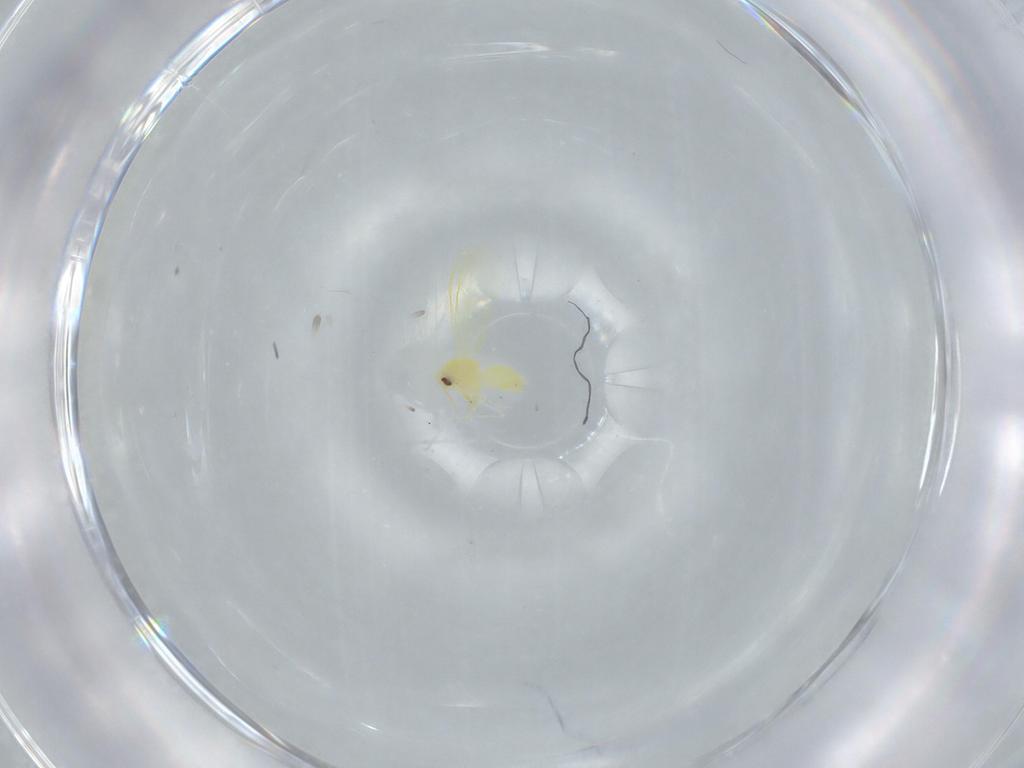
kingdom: Animalia
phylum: Arthropoda
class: Insecta
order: Hemiptera
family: Aleyrodidae
